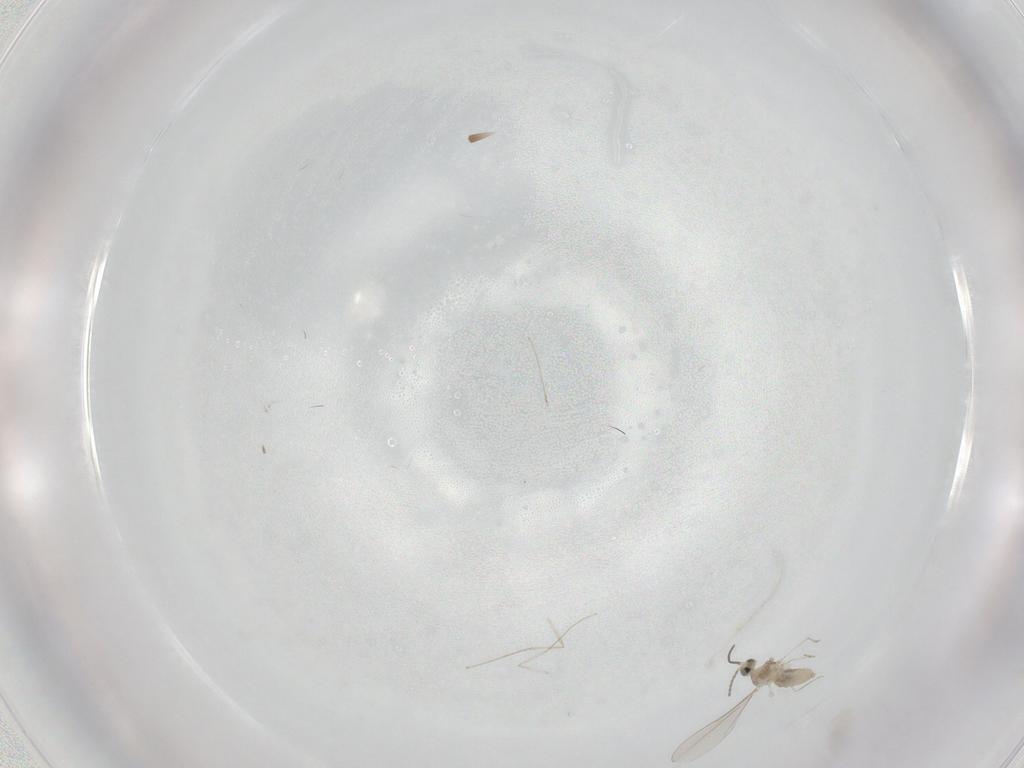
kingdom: Animalia
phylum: Arthropoda
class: Insecta
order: Diptera
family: Cecidomyiidae
